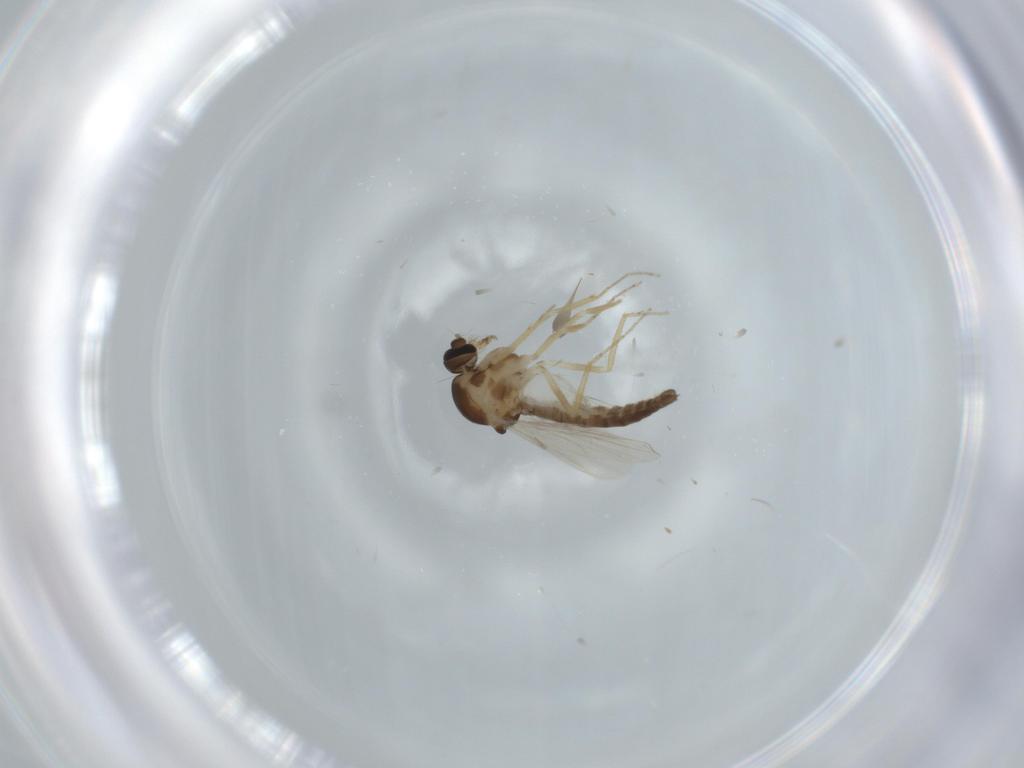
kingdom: Animalia
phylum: Arthropoda
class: Insecta
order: Diptera
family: Ceratopogonidae
